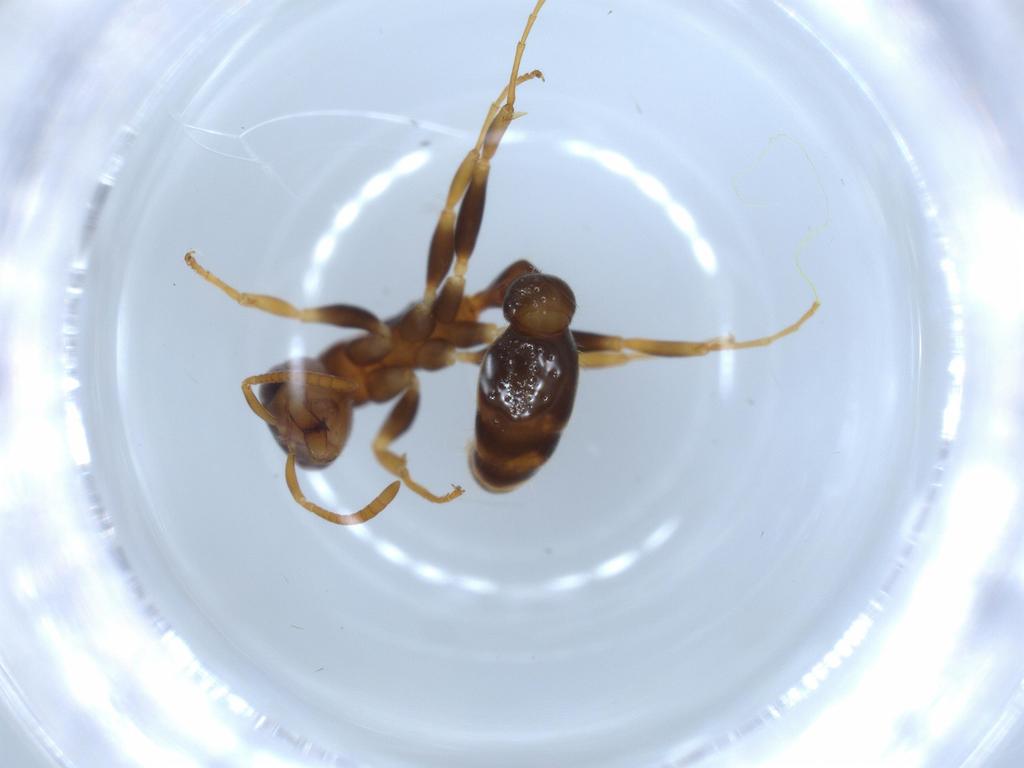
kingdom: Animalia
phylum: Arthropoda
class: Insecta
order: Hymenoptera
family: Formicidae
